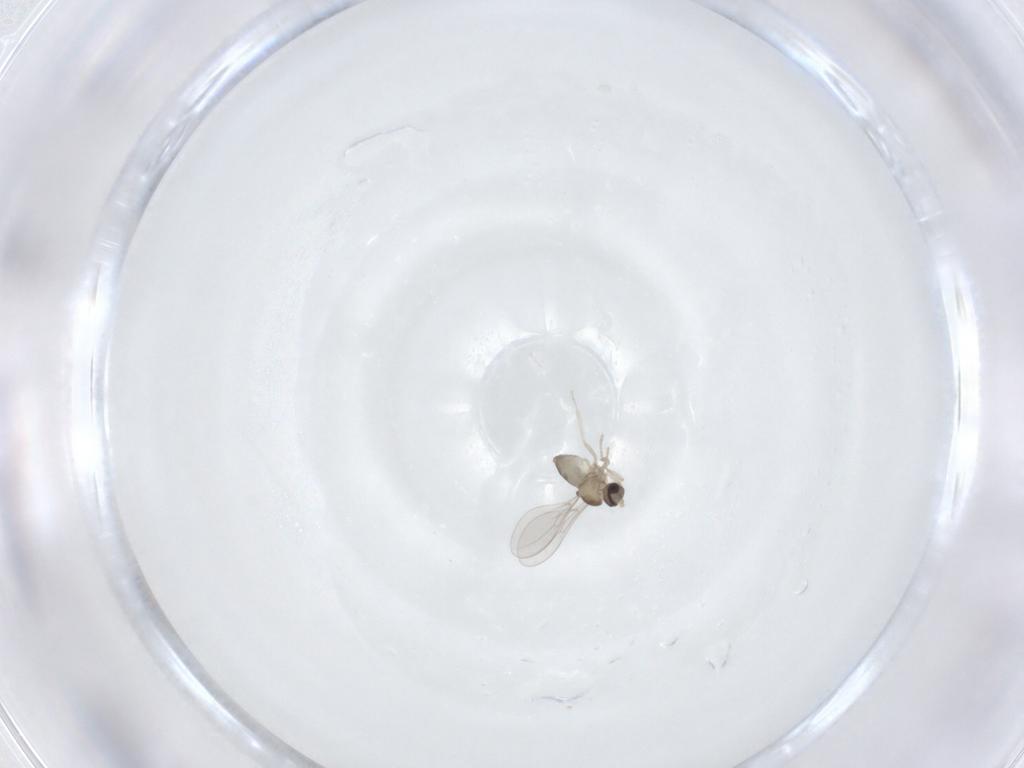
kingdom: Animalia
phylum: Arthropoda
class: Insecta
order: Diptera
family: Cecidomyiidae
